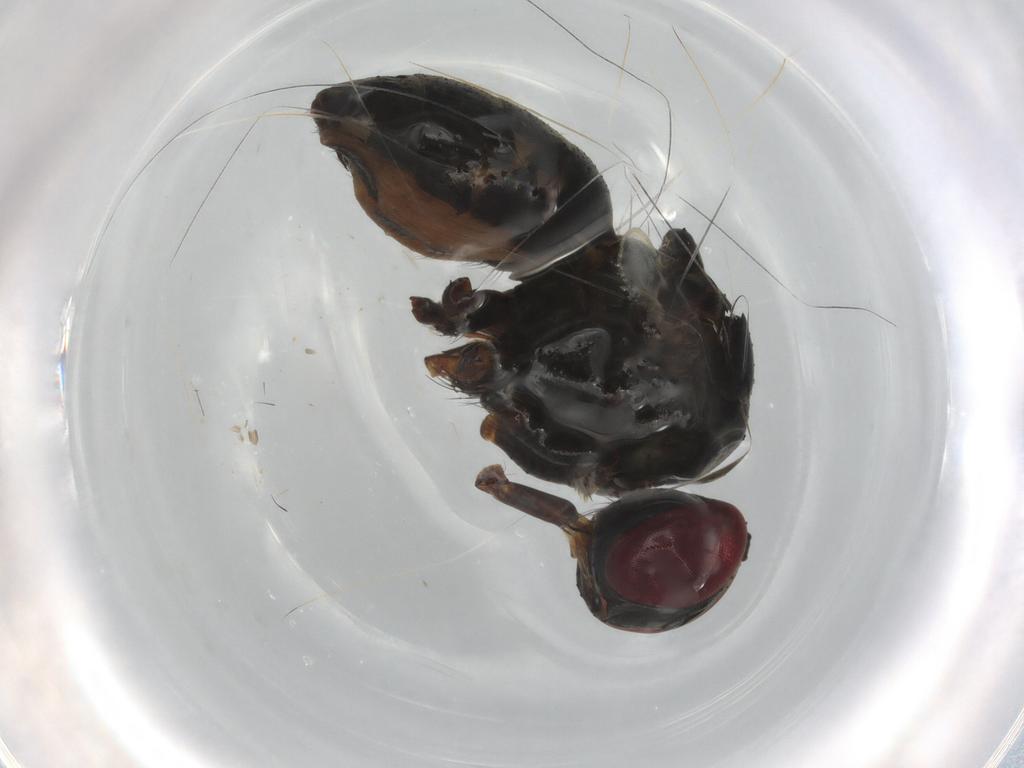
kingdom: Animalia
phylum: Arthropoda
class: Insecta
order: Diptera
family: Muscidae
